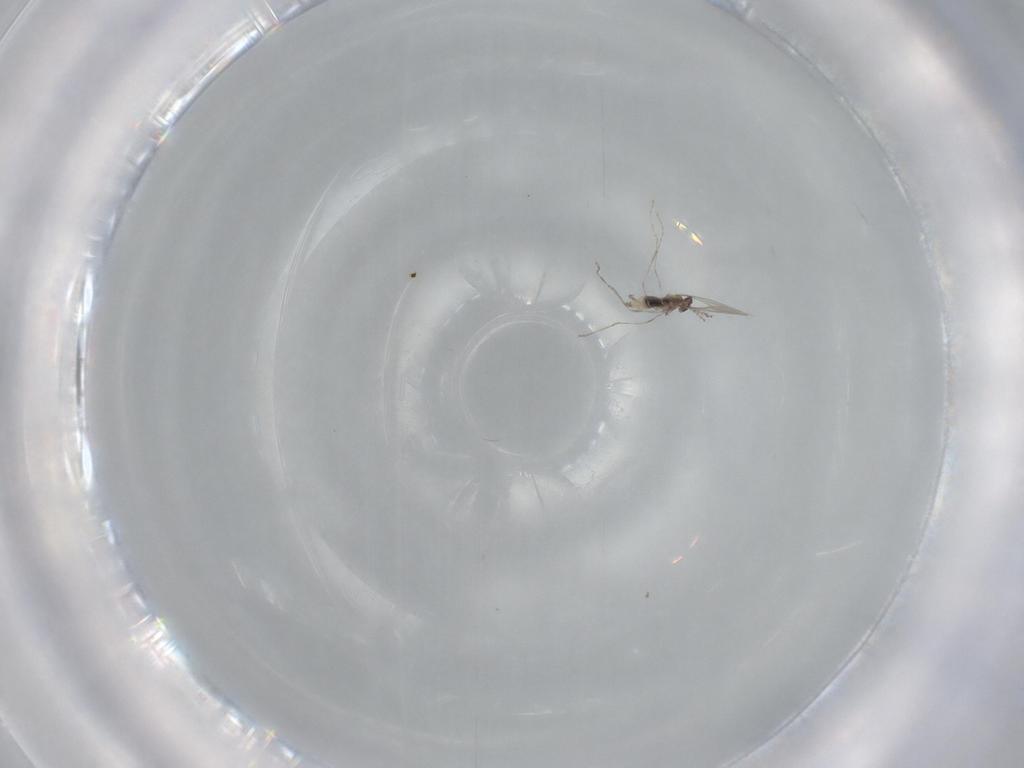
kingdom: Animalia
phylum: Arthropoda
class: Insecta
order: Diptera
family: Cecidomyiidae
